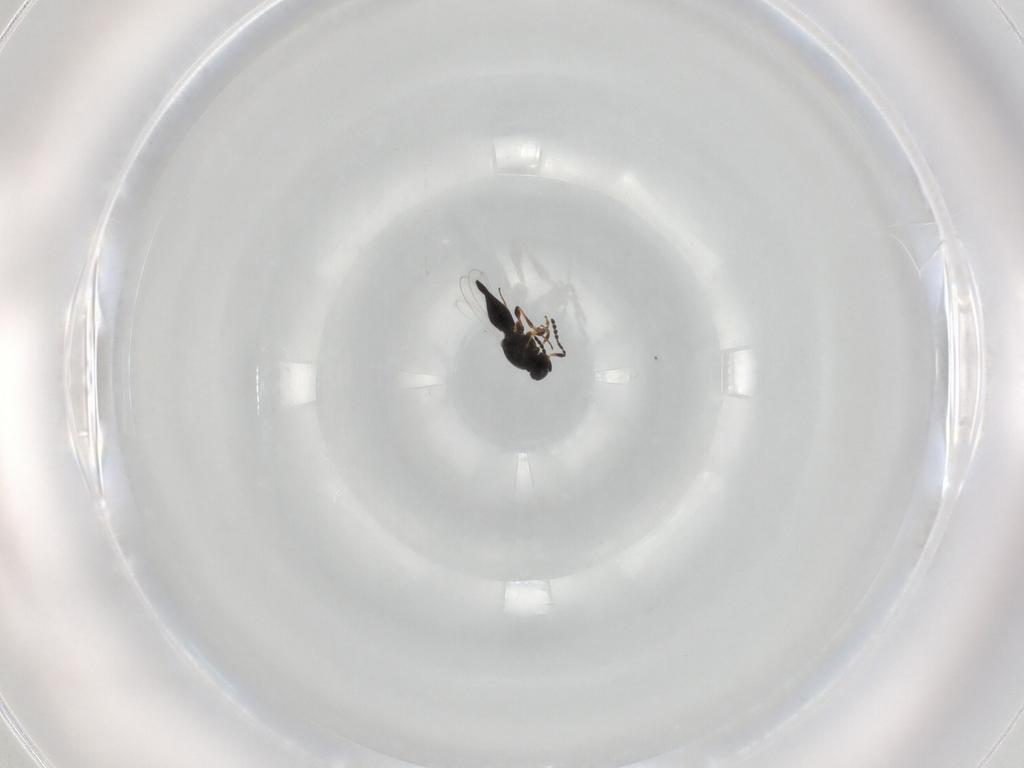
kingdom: Animalia
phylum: Arthropoda
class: Insecta
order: Hymenoptera
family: Platygastridae
